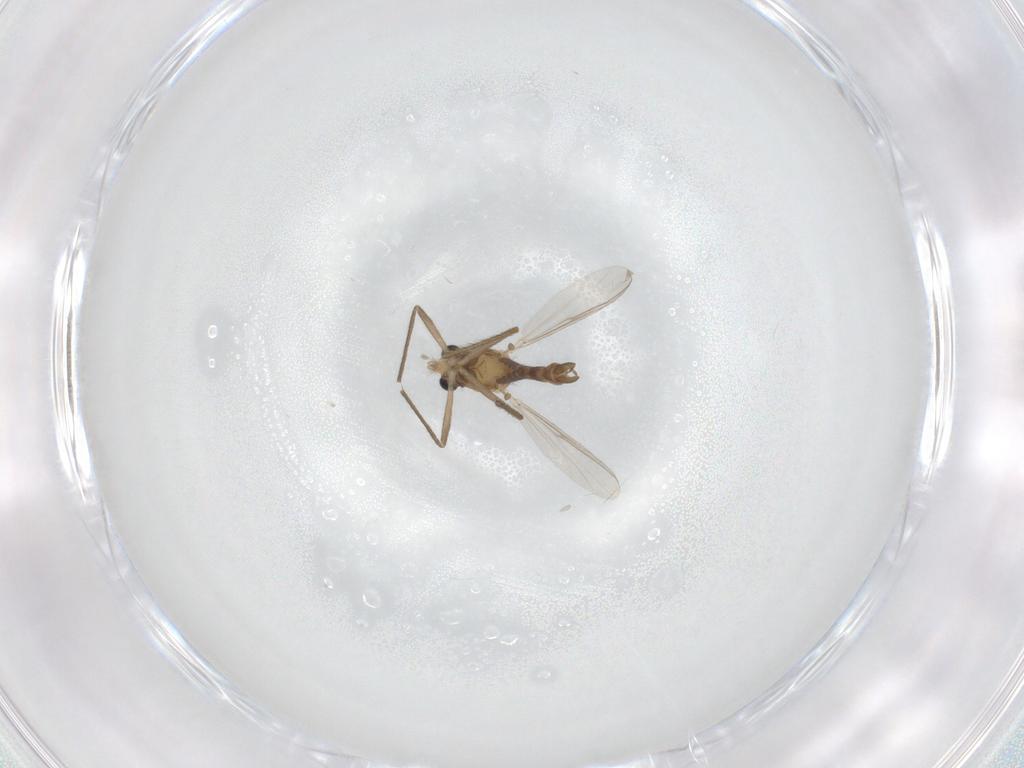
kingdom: Animalia
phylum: Arthropoda
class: Insecta
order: Diptera
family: Chironomidae
